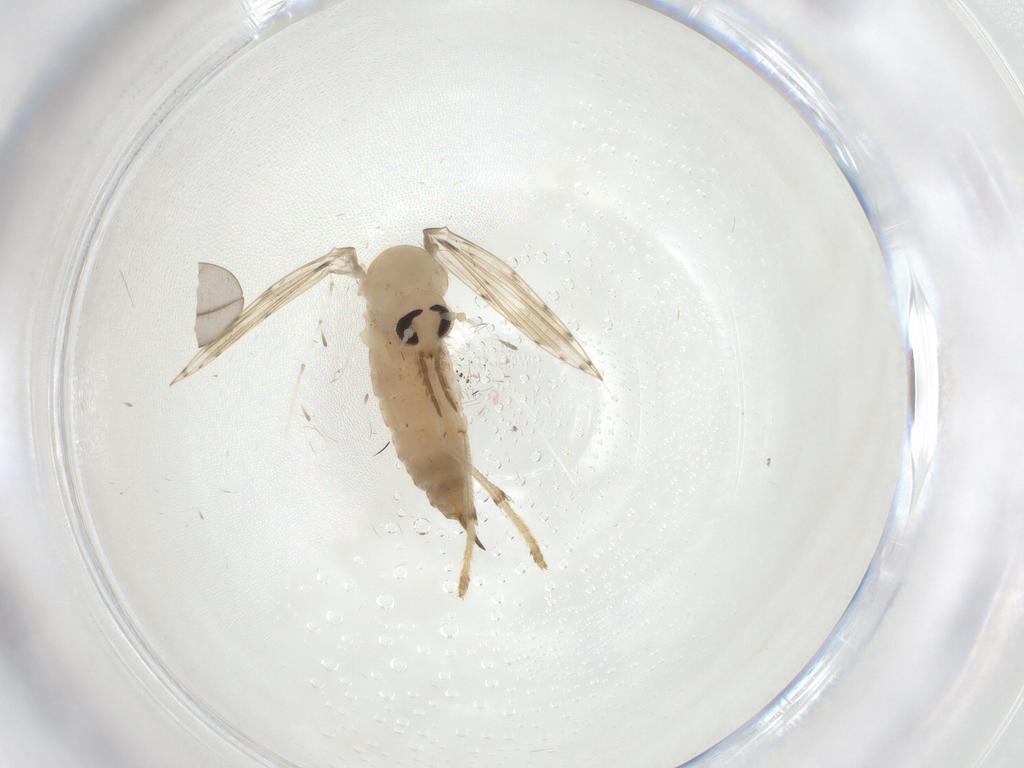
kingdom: Animalia
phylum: Arthropoda
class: Insecta
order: Diptera
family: Psychodidae
